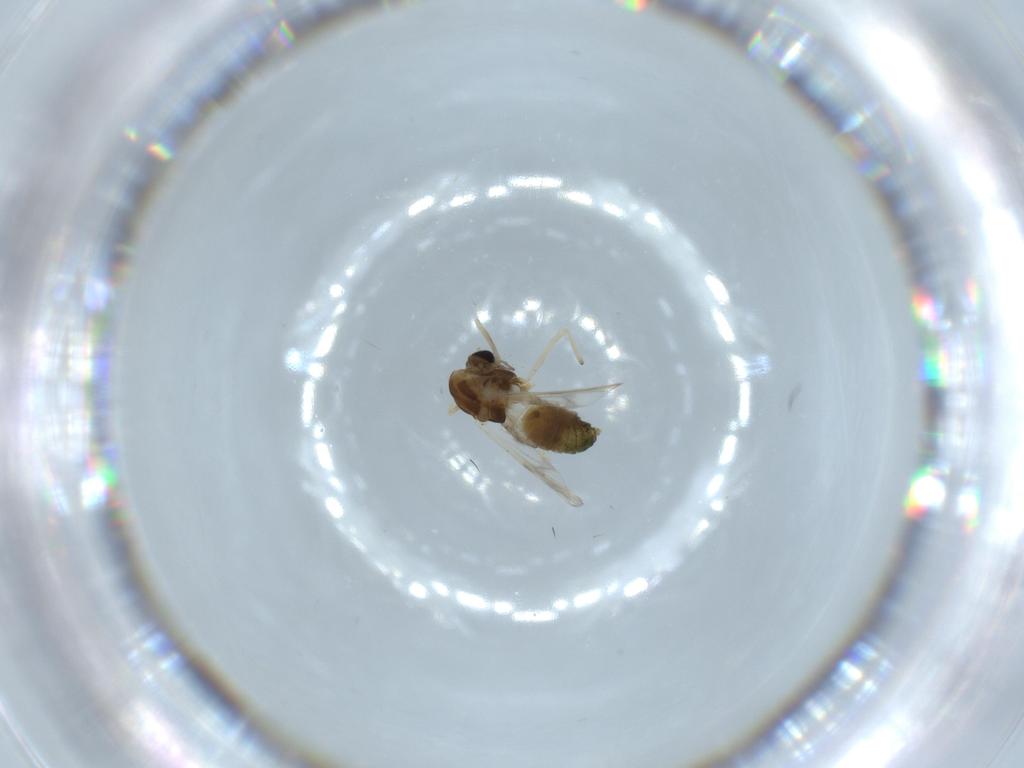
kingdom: Animalia
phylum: Arthropoda
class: Insecta
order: Diptera
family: Chironomidae
